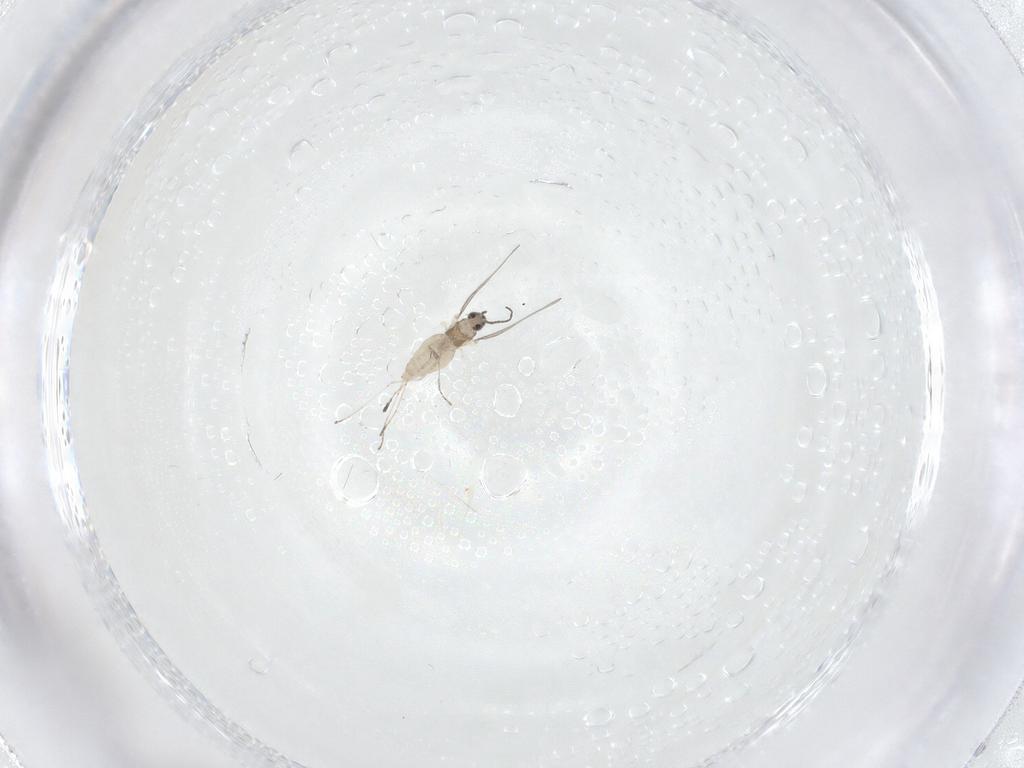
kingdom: Animalia
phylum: Arthropoda
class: Insecta
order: Diptera
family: Cecidomyiidae
